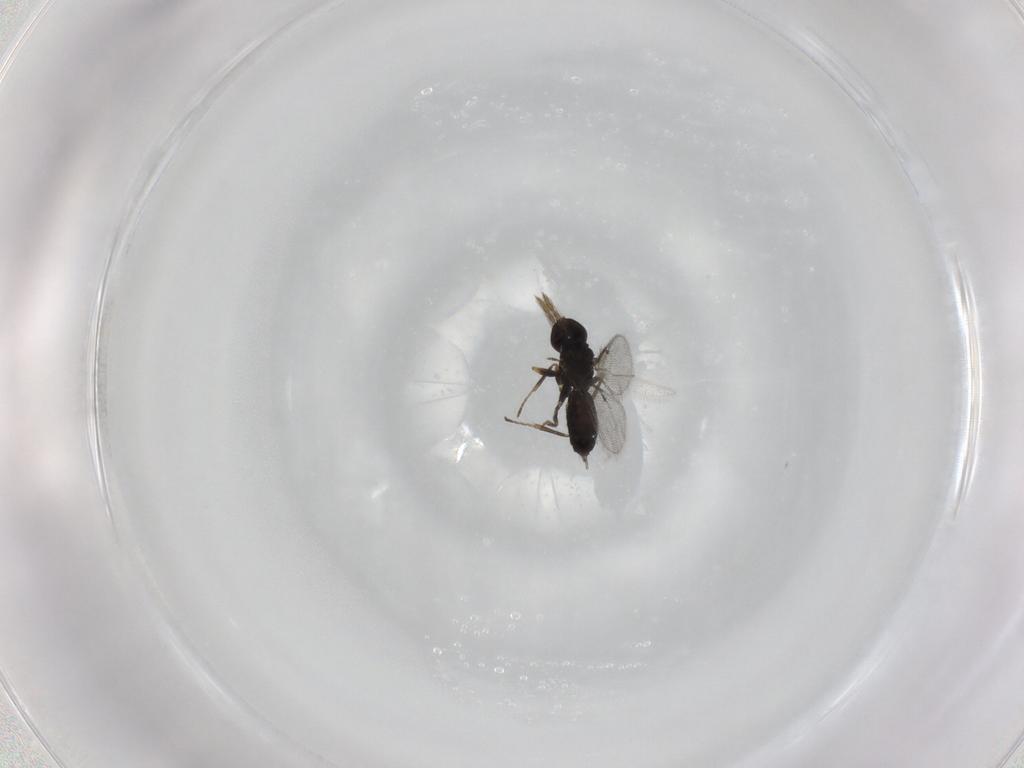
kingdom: Animalia
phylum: Arthropoda
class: Insecta
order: Hymenoptera
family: Eulophidae
